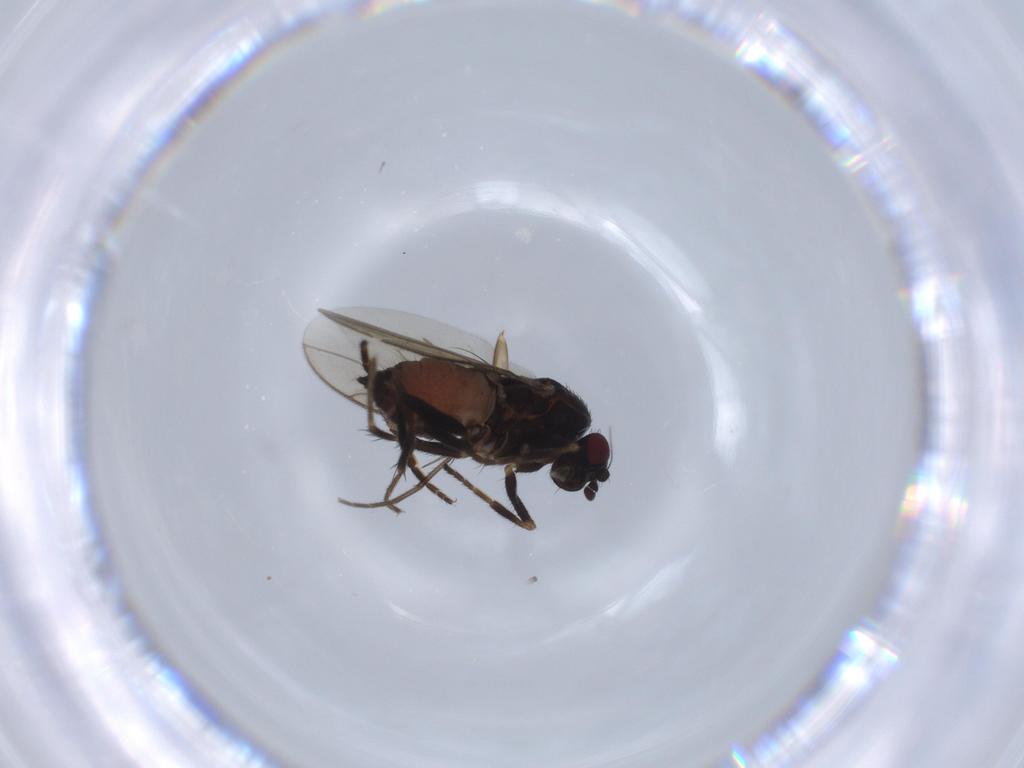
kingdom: Animalia
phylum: Arthropoda
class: Insecta
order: Diptera
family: Sphaeroceridae
